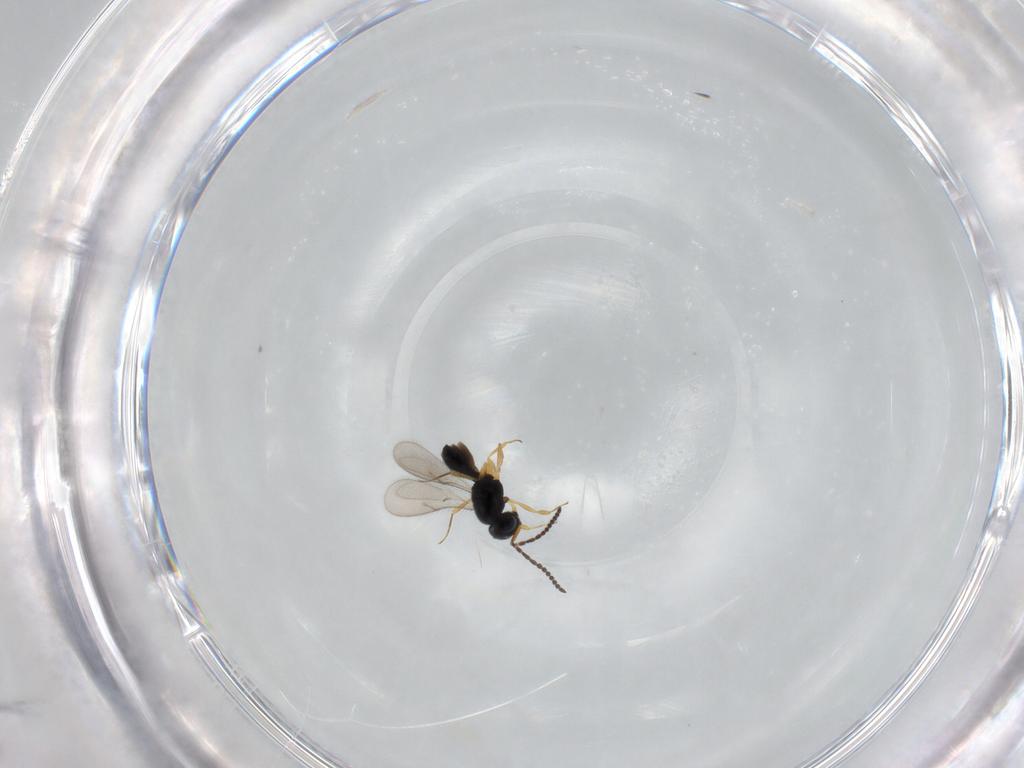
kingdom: Animalia
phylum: Arthropoda
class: Insecta
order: Hymenoptera
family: Scelionidae
